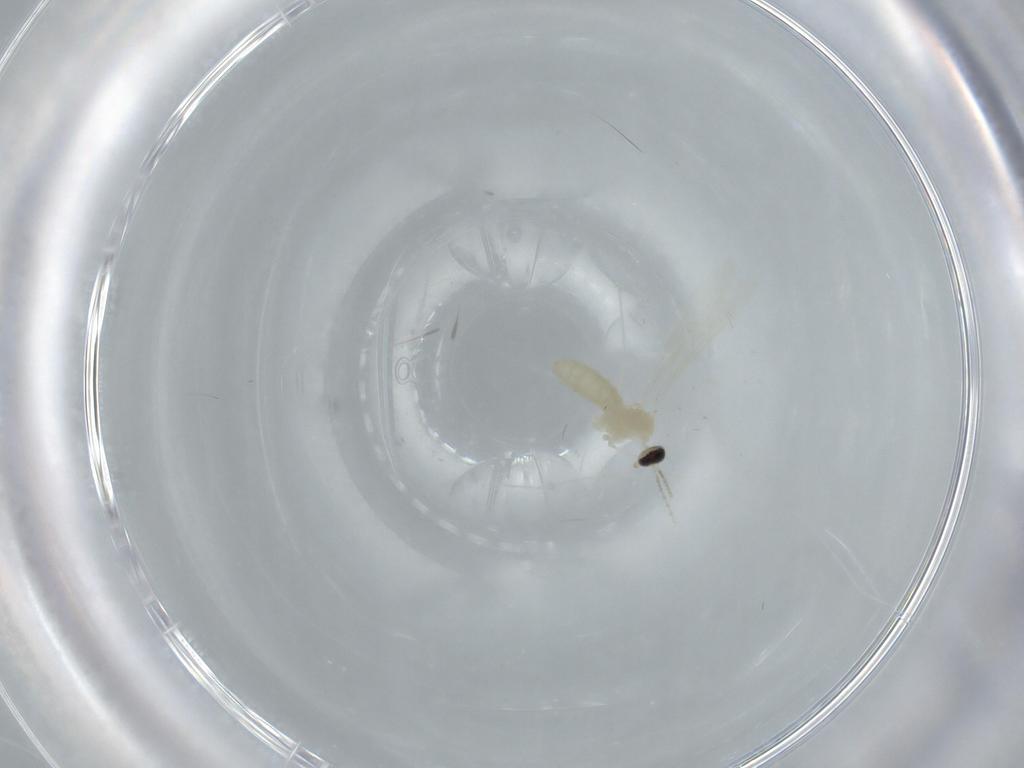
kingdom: Animalia
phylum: Arthropoda
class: Insecta
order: Diptera
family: Cecidomyiidae
